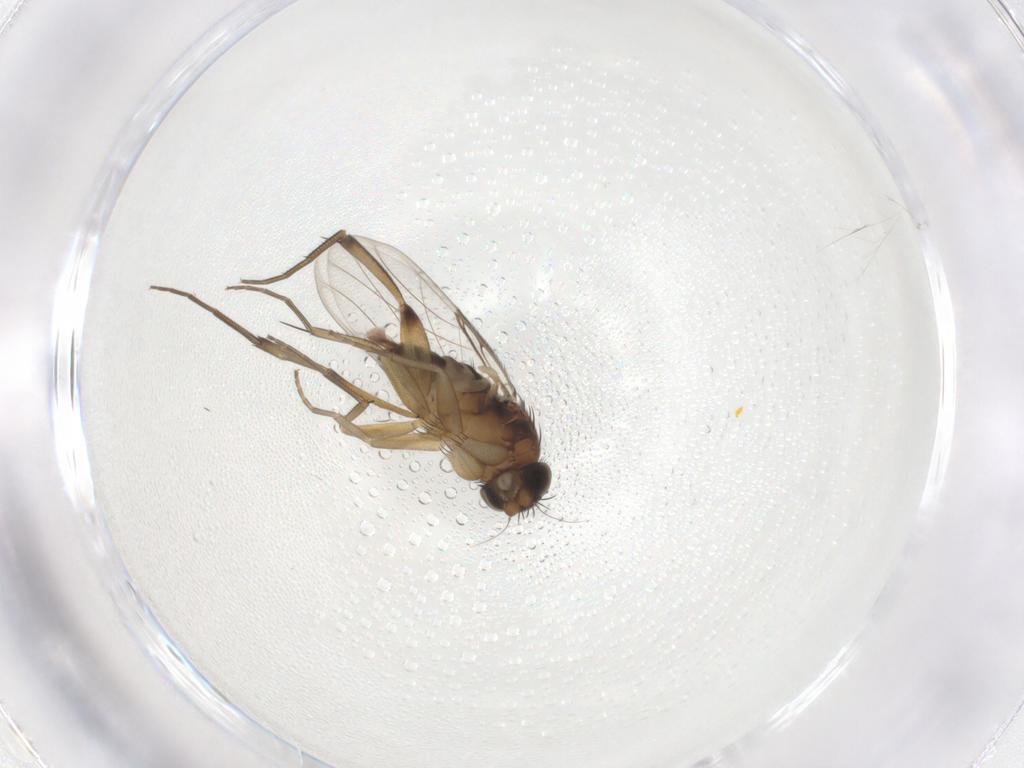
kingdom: Animalia
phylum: Arthropoda
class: Insecta
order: Diptera
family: Phoridae
